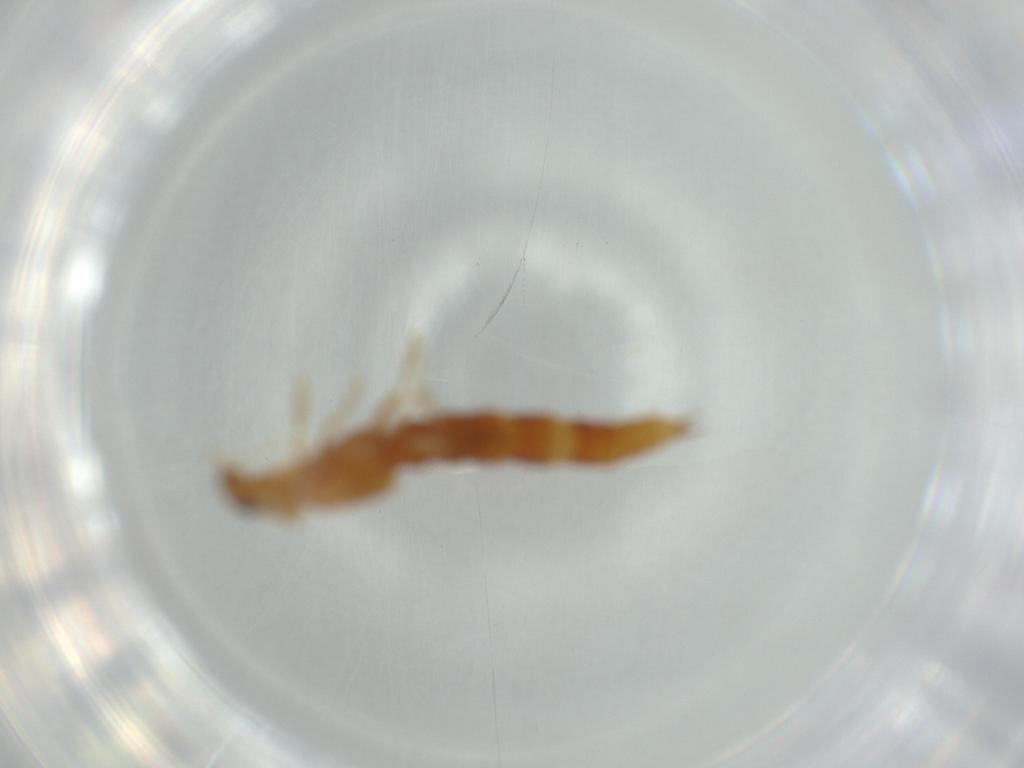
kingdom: Animalia
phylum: Arthropoda
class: Insecta
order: Coleoptera
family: Staphylinidae
